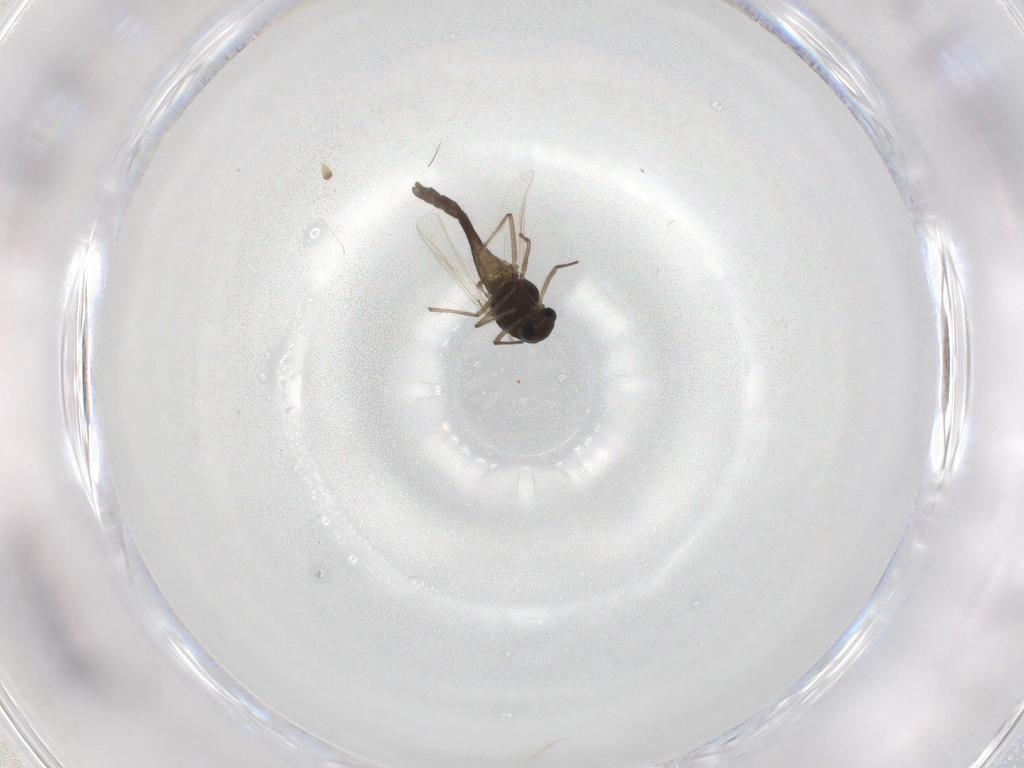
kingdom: Animalia
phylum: Arthropoda
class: Insecta
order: Diptera
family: Chironomidae
